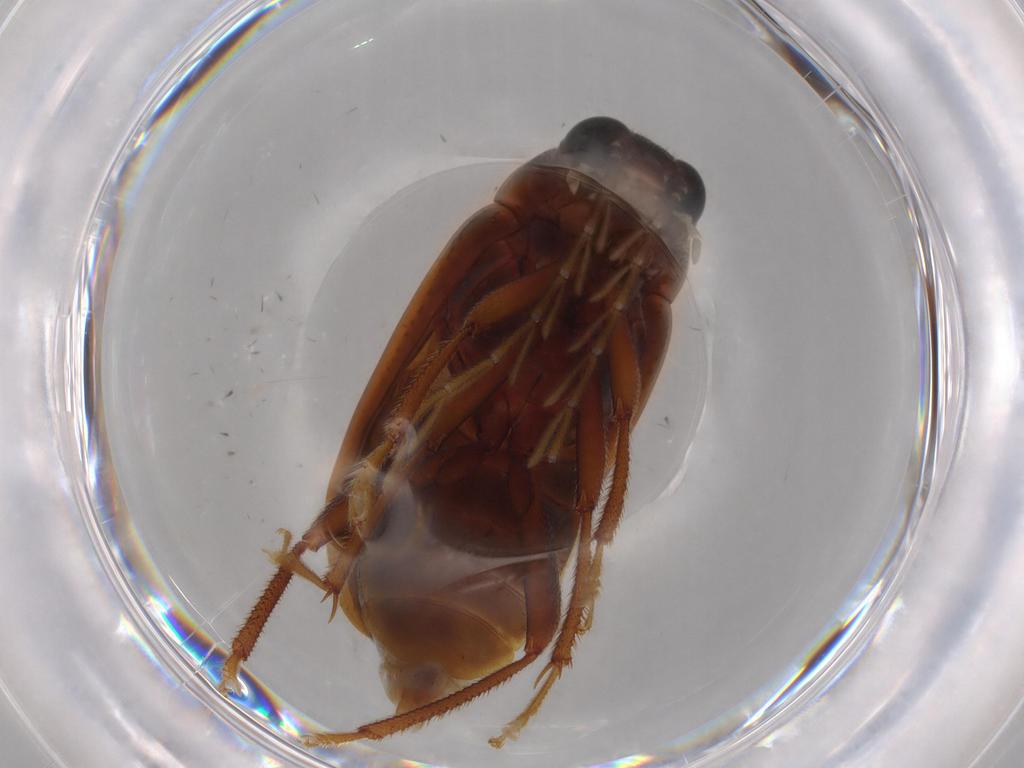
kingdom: Animalia
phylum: Arthropoda
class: Insecta
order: Coleoptera
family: Ptilodactylidae
